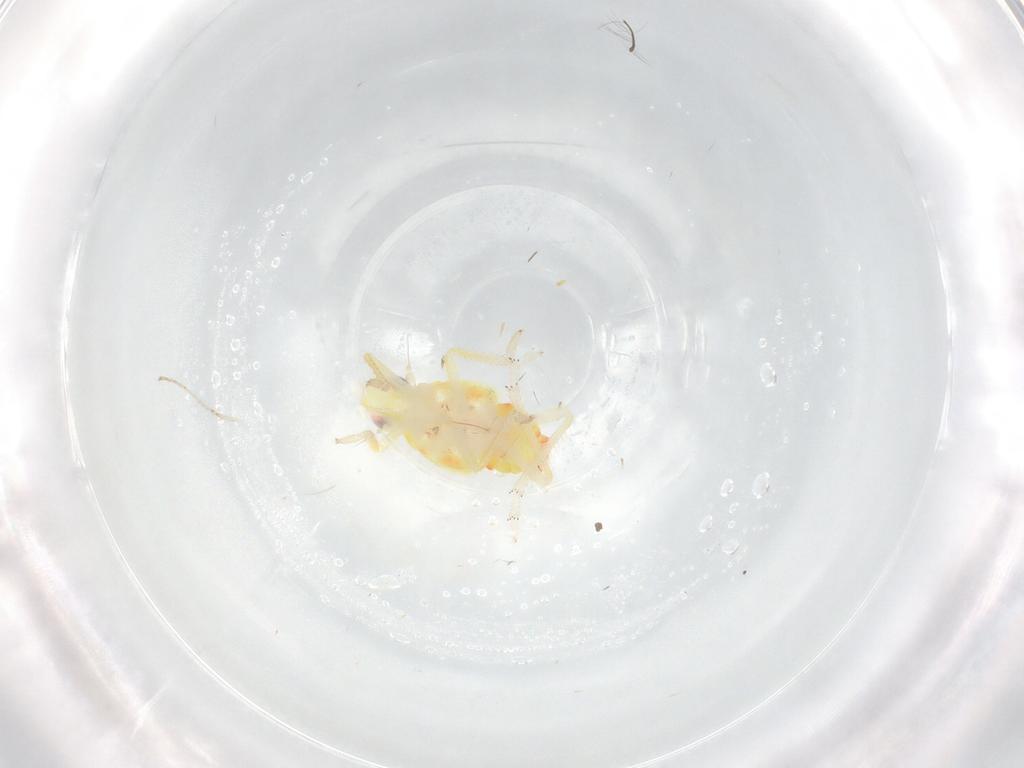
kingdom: Animalia
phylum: Arthropoda
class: Insecta
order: Hemiptera
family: Tropiduchidae
